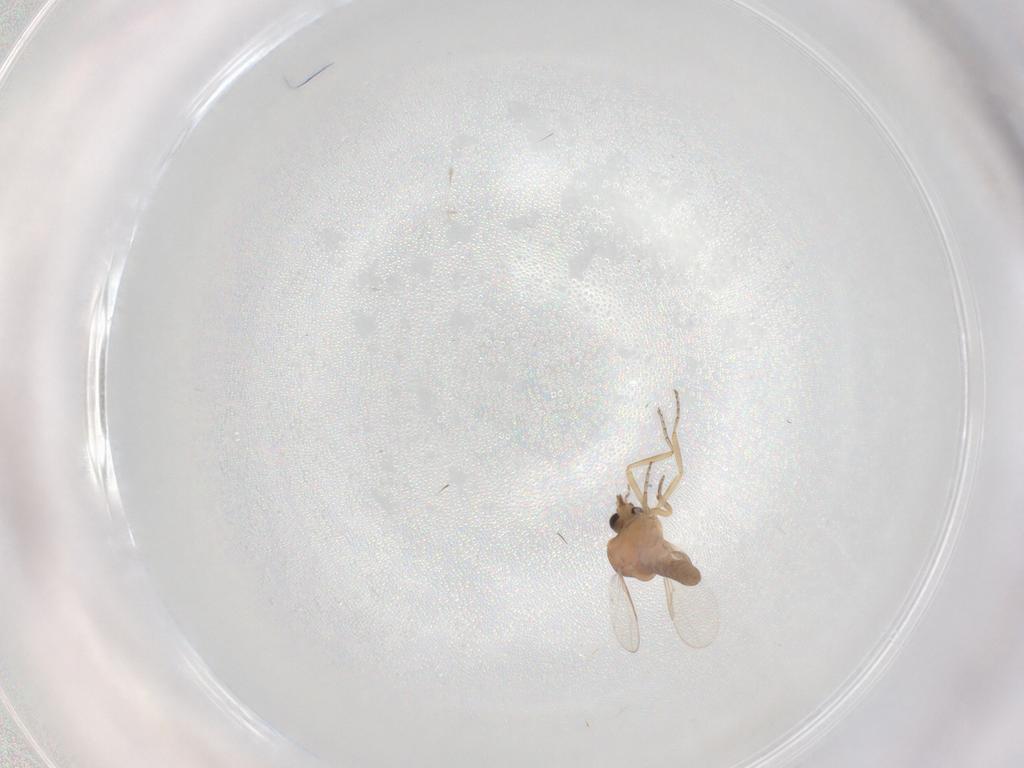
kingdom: Animalia
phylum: Arthropoda
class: Insecta
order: Diptera
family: Ceratopogonidae
